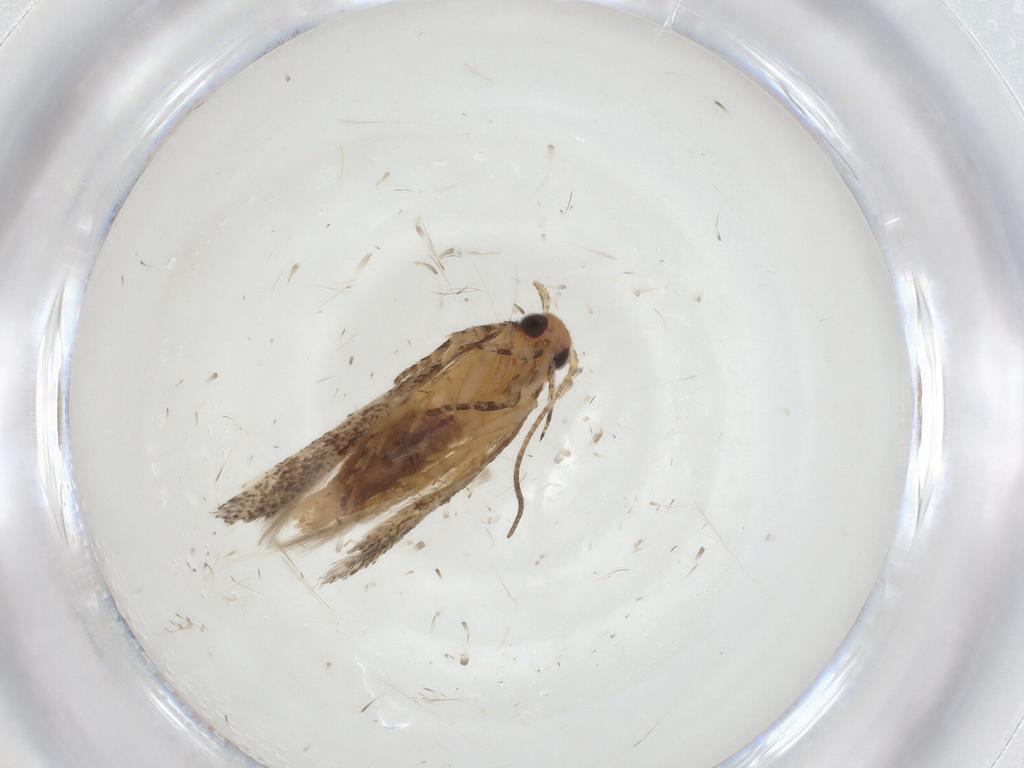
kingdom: Animalia
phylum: Arthropoda
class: Insecta
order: Lepidoptera
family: Gelechiidae
